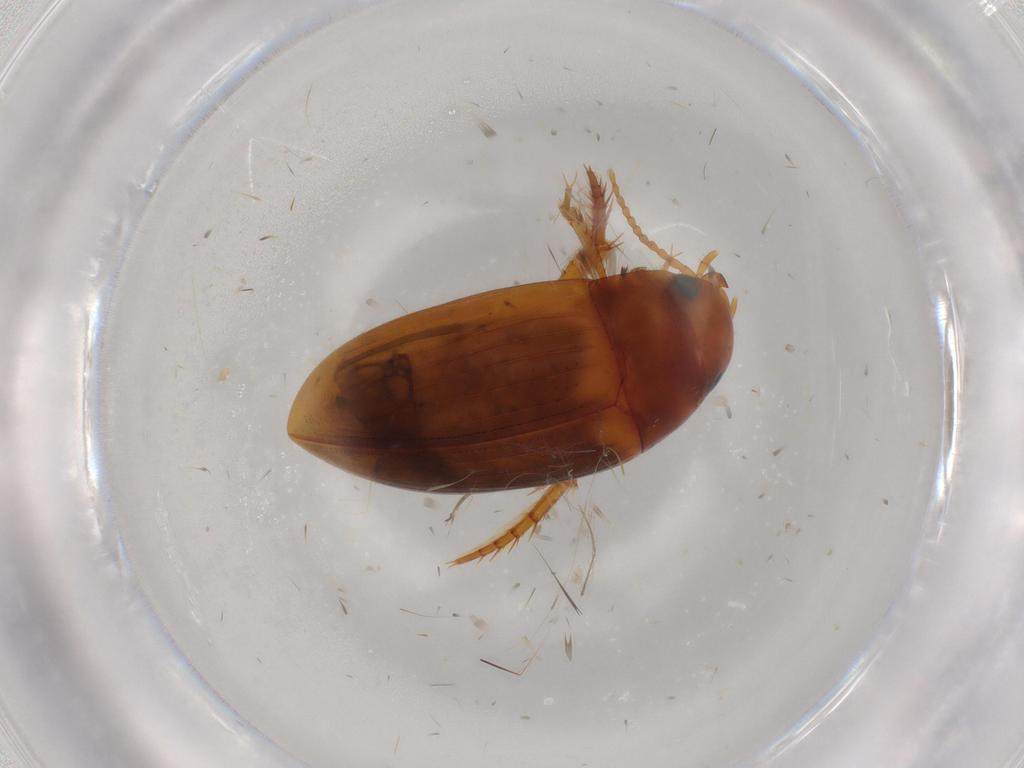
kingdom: Animalia
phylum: Arthropoda
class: Insecta
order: Coleoptera
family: Dytiscidae
